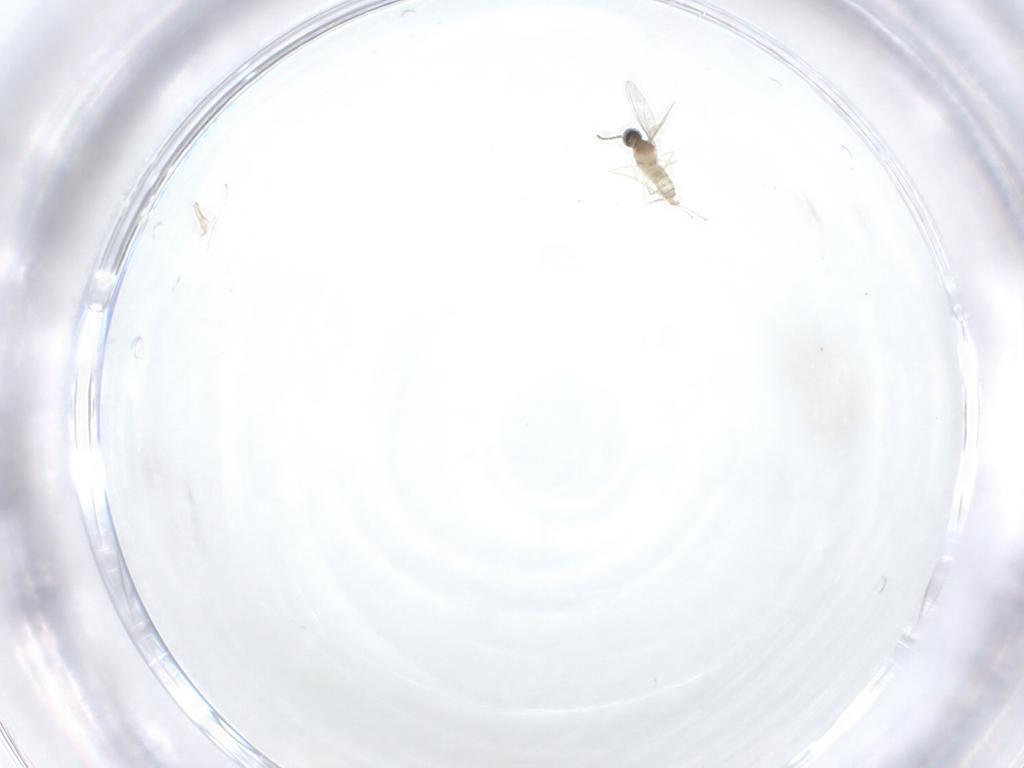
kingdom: Animalia
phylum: Arthropoda
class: Insecta
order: Diptera
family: Cecidomyiidae
